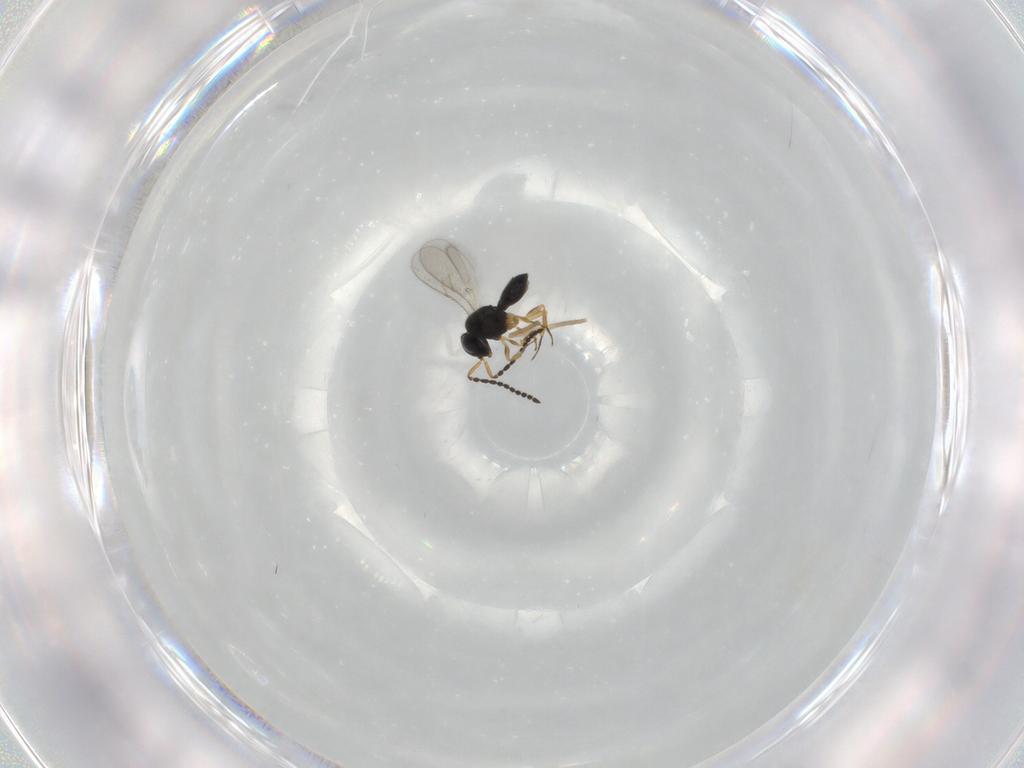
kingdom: Animalia
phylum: Arthropoda
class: Insecta
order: Hymenoptera
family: Scelionidae
